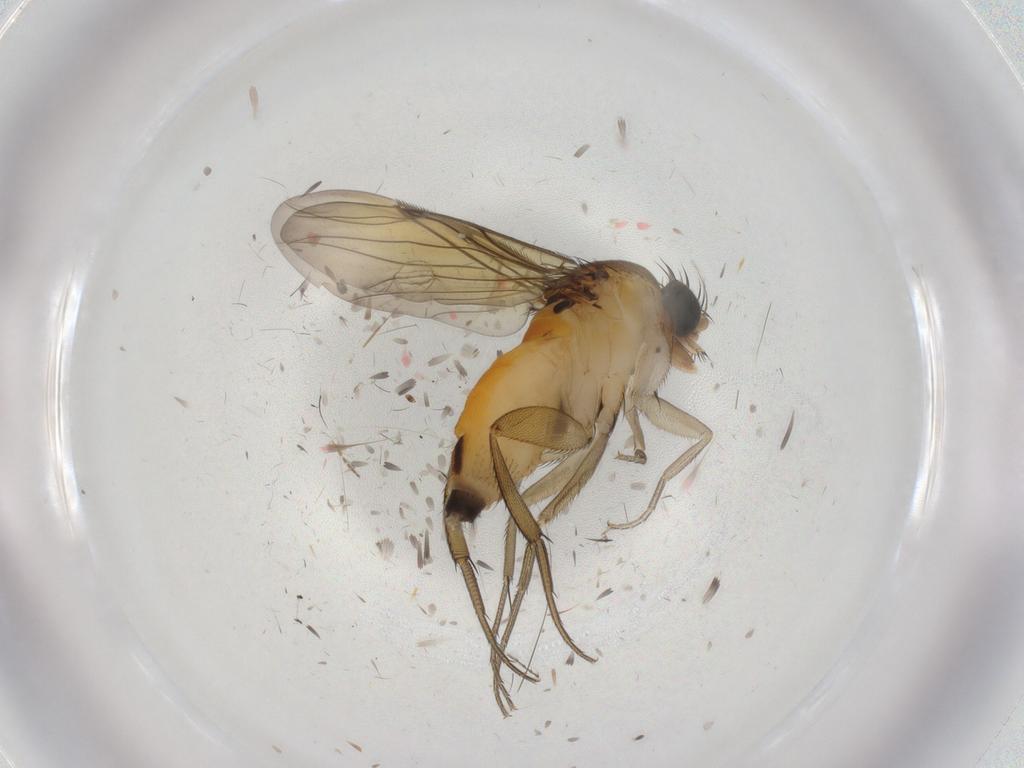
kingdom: Animalia
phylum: Arthropoda
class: Insecta
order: Diptera
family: Phoridae
